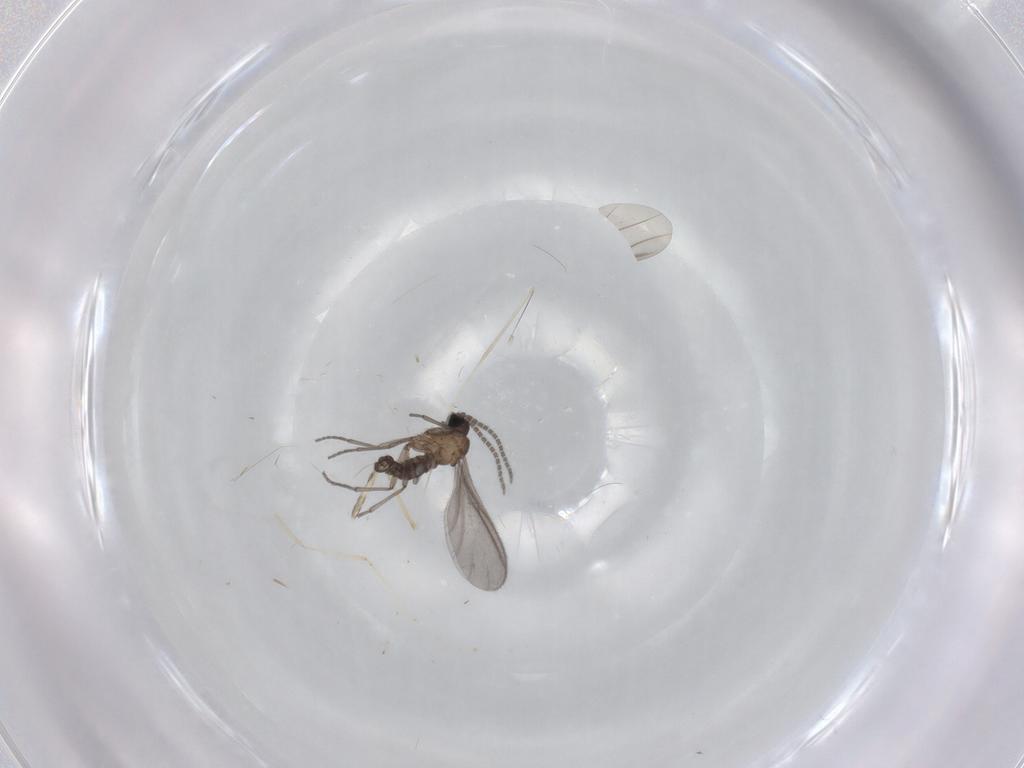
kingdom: Animalia
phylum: Arthropoda
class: Insecta
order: Diptera
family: Sciaridae
